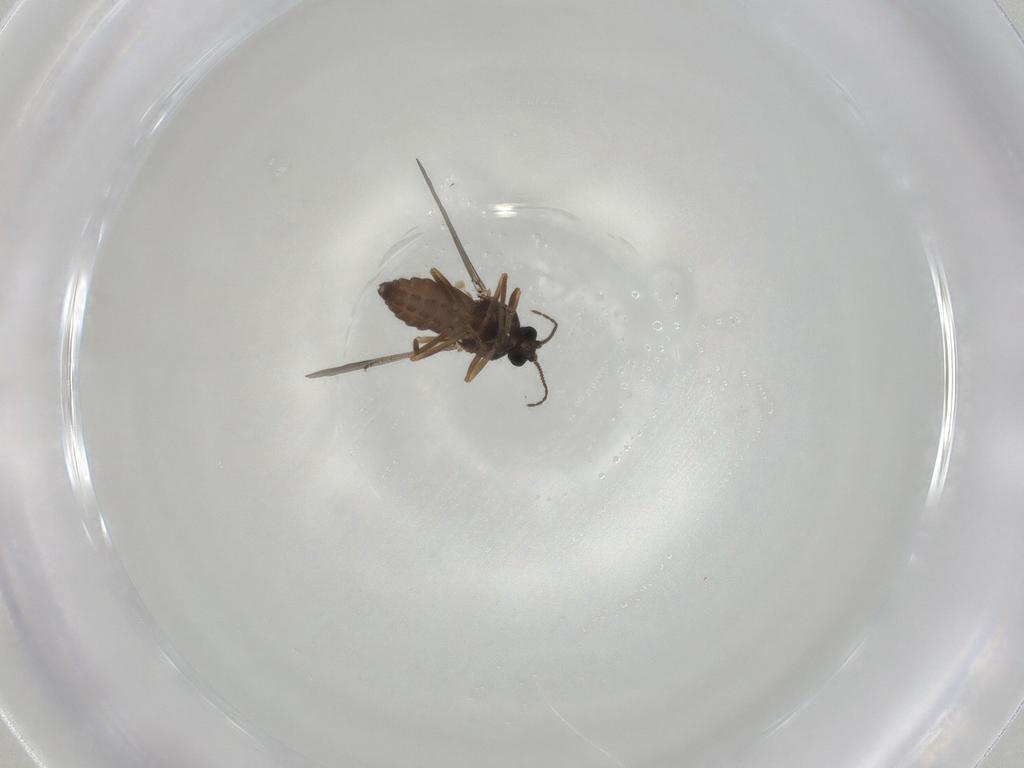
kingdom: Animalia
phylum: Arthropoda
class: Insecta
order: Diptera
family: Ceratopogonidae
